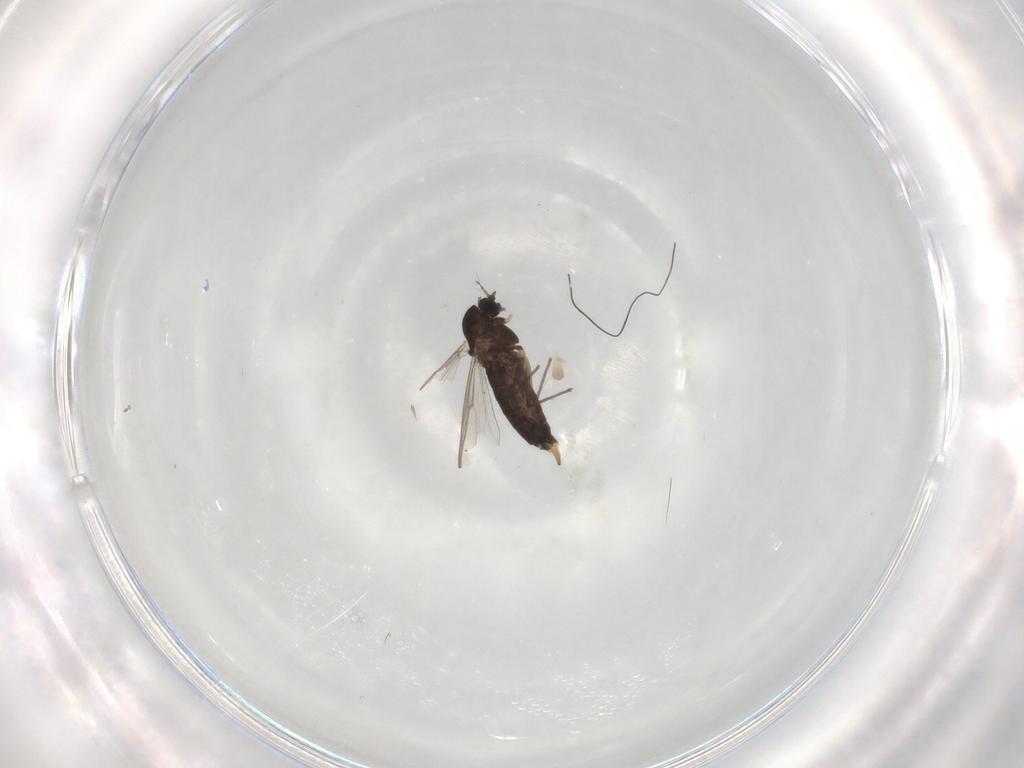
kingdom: Animalia
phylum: Arthropoda
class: Insecta
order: Diptera
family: Chironomidae
